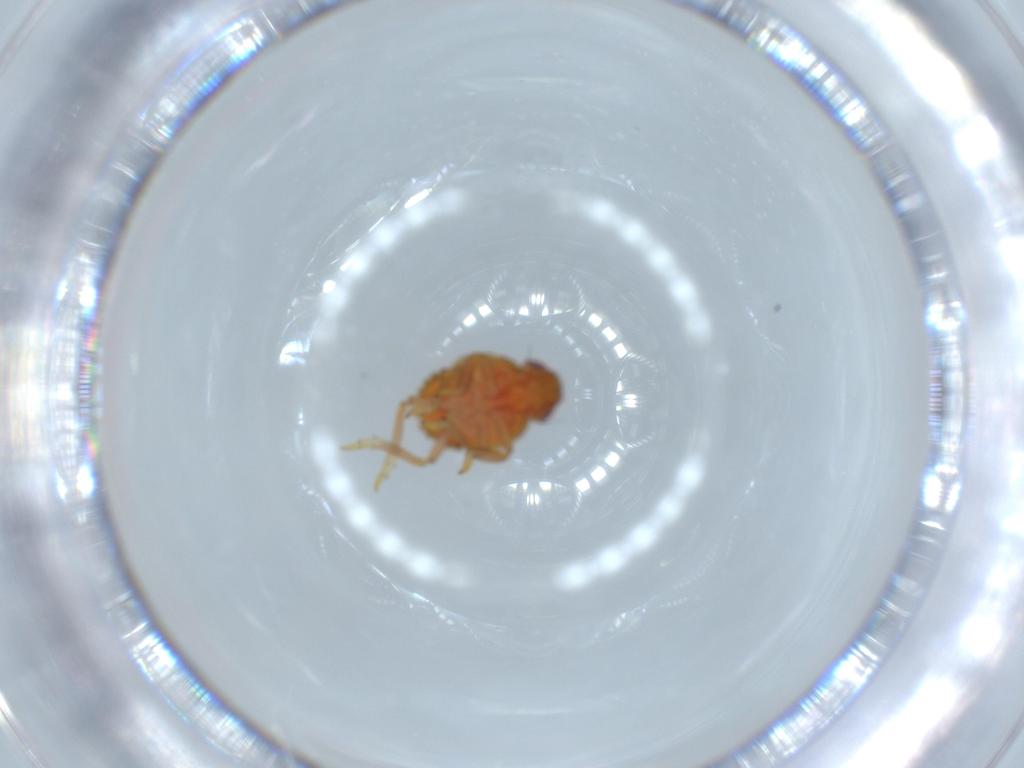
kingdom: Animalia
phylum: Arthropoda
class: Insecta
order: Hemiptera
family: Issidae
